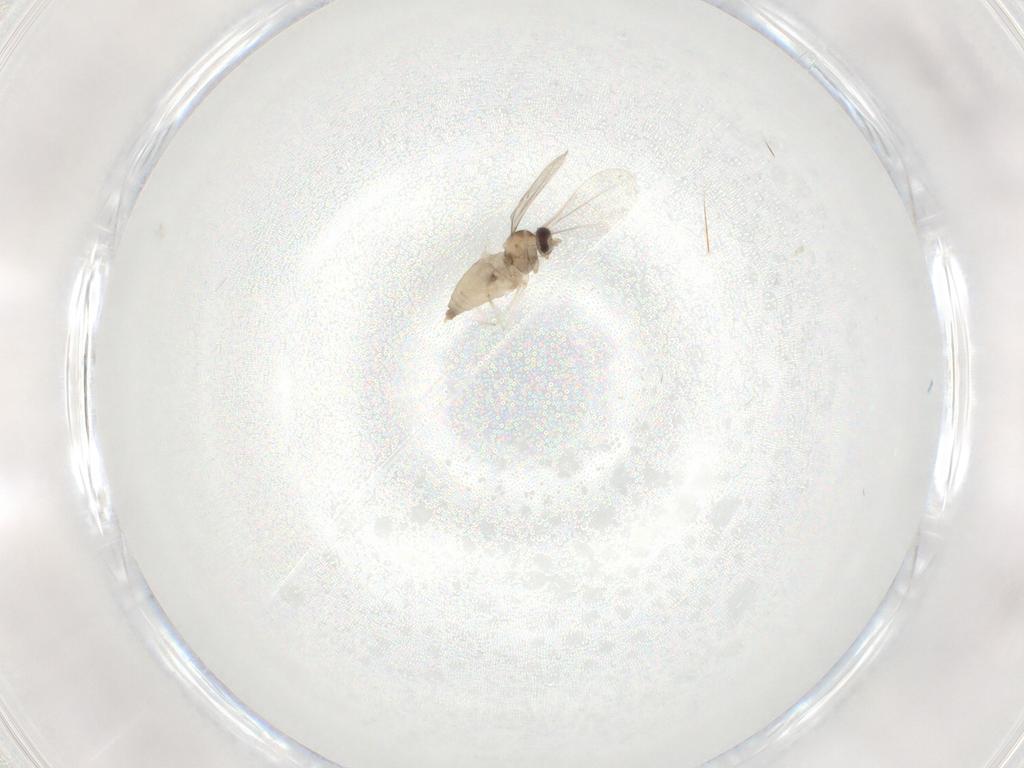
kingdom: Animalia
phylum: Arthropoda
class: Insecta
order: Diptera
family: Cecidomyiidae
